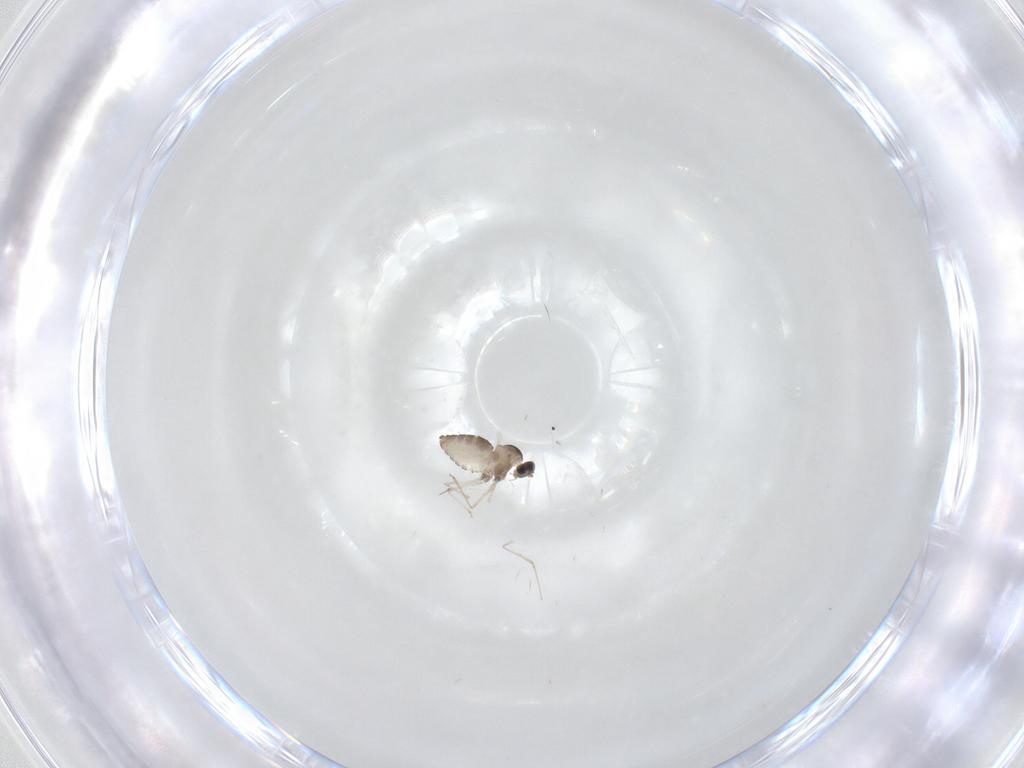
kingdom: Animalia
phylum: Arthropoda
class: Insecta
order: Diptera
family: Cecidomyiidae
